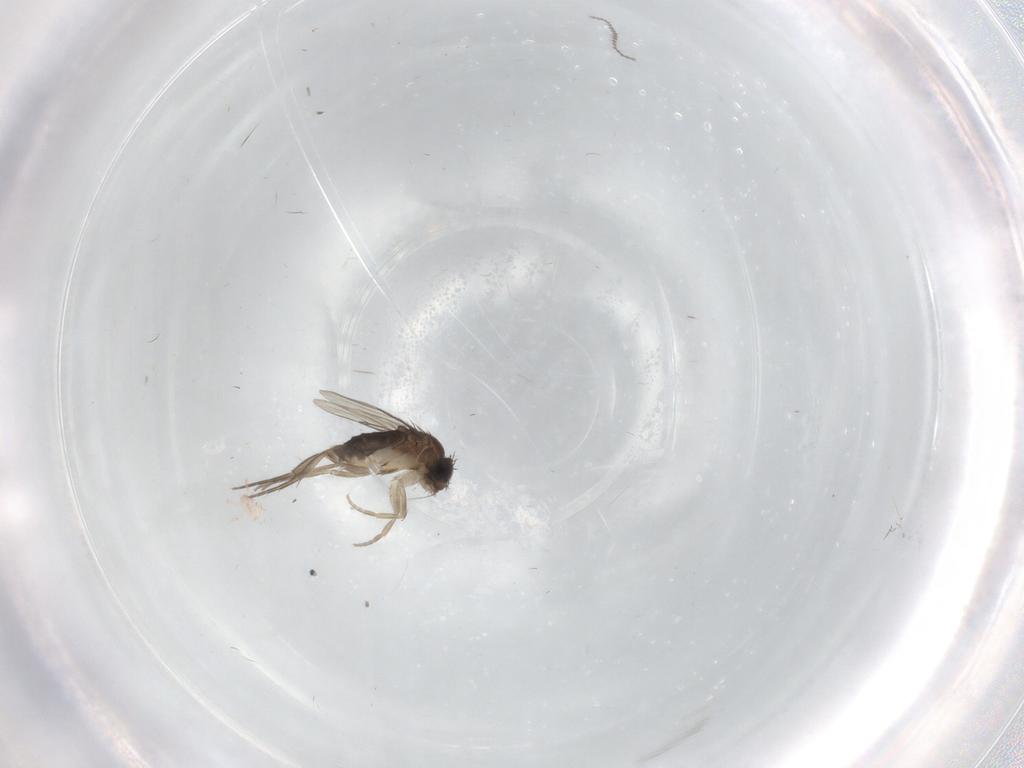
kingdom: Animalia
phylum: Arthropoda
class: Insecta
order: Diptera
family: Cecidomyiidae
